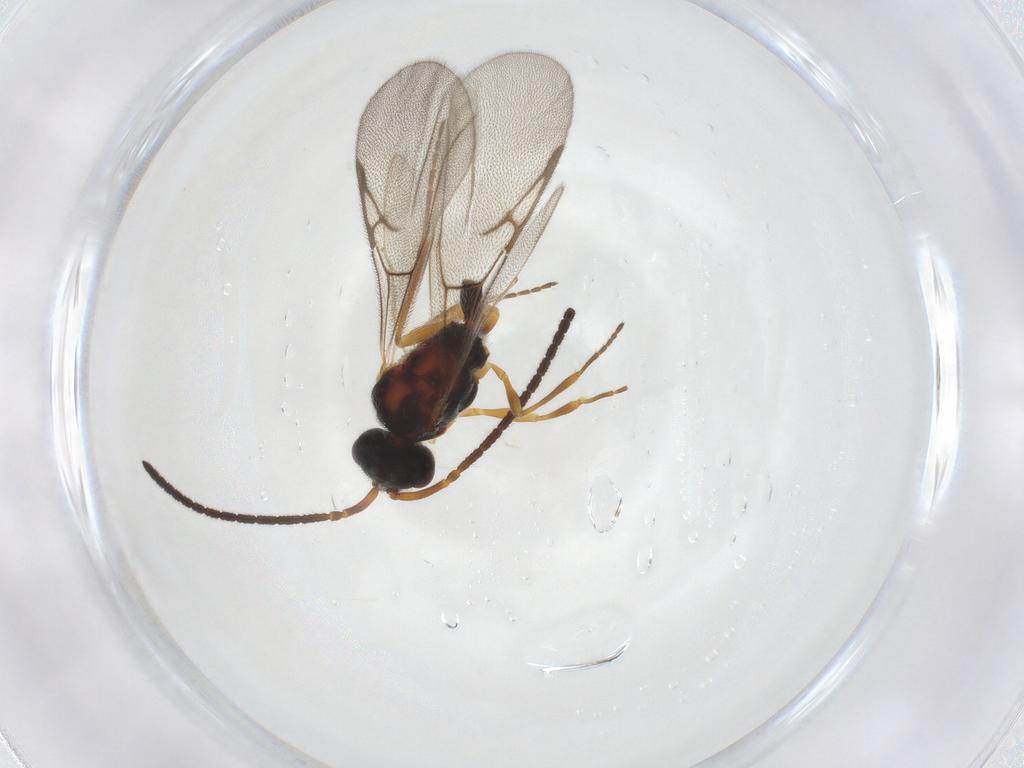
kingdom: Animalia
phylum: Arthropoda
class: Insecta
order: Hymenoptera
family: Diapriidae
